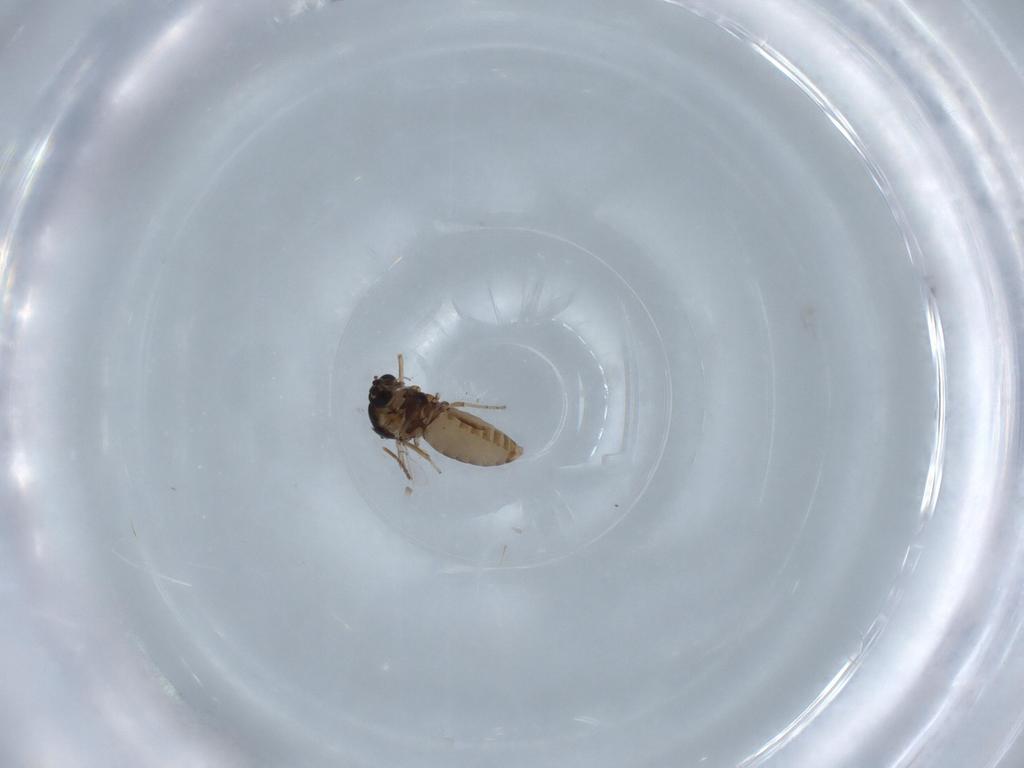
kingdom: Animalia
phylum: Arthropoda
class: Insecta
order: Diptera
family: Ceratopogonidae
